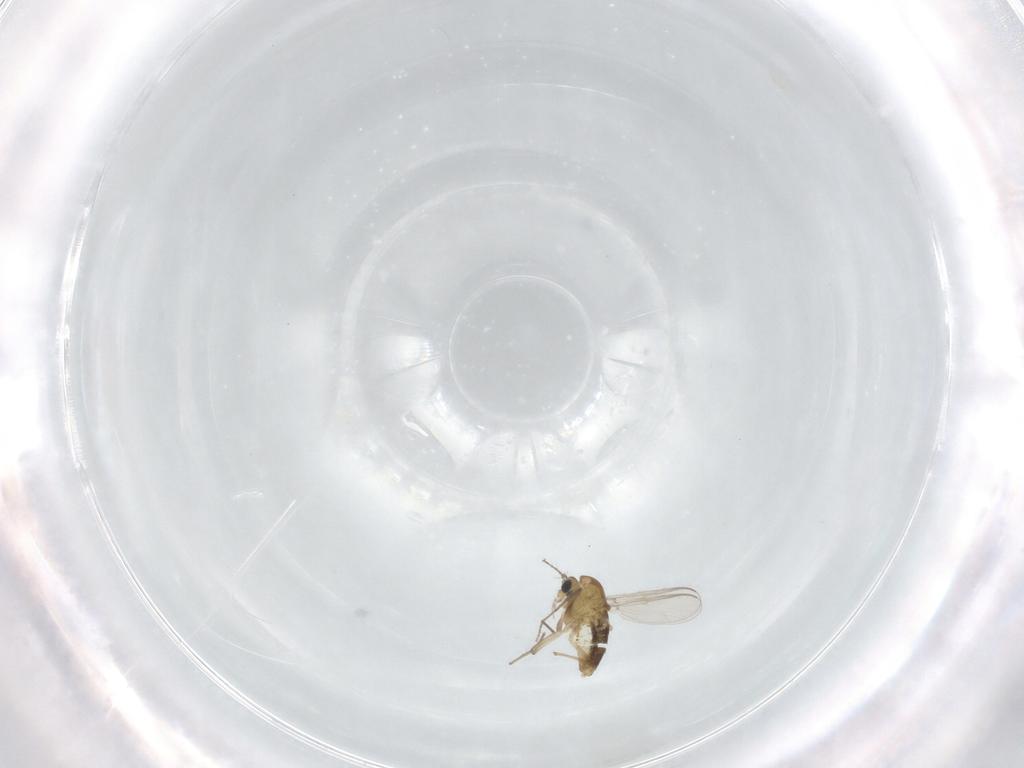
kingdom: Animalia
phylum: Arthropoda
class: Insecta
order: Diptera
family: Chironomidae
